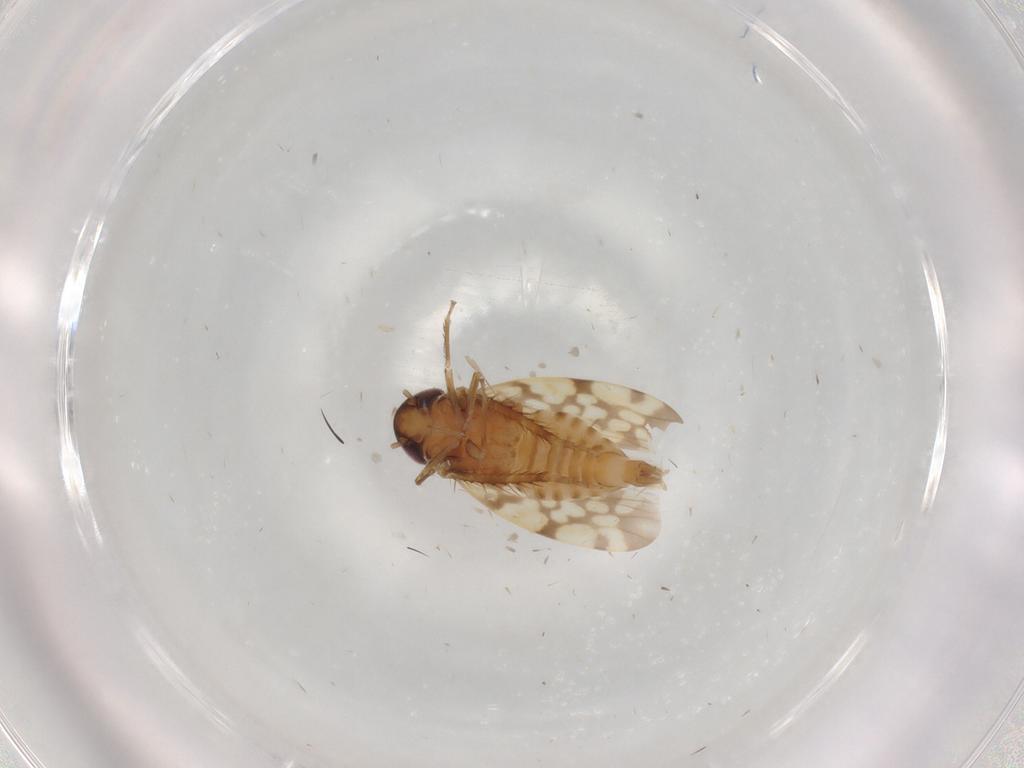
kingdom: Animalia
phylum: Arthropoda
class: Insecta
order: Hemiptera
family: Cicadellidae
